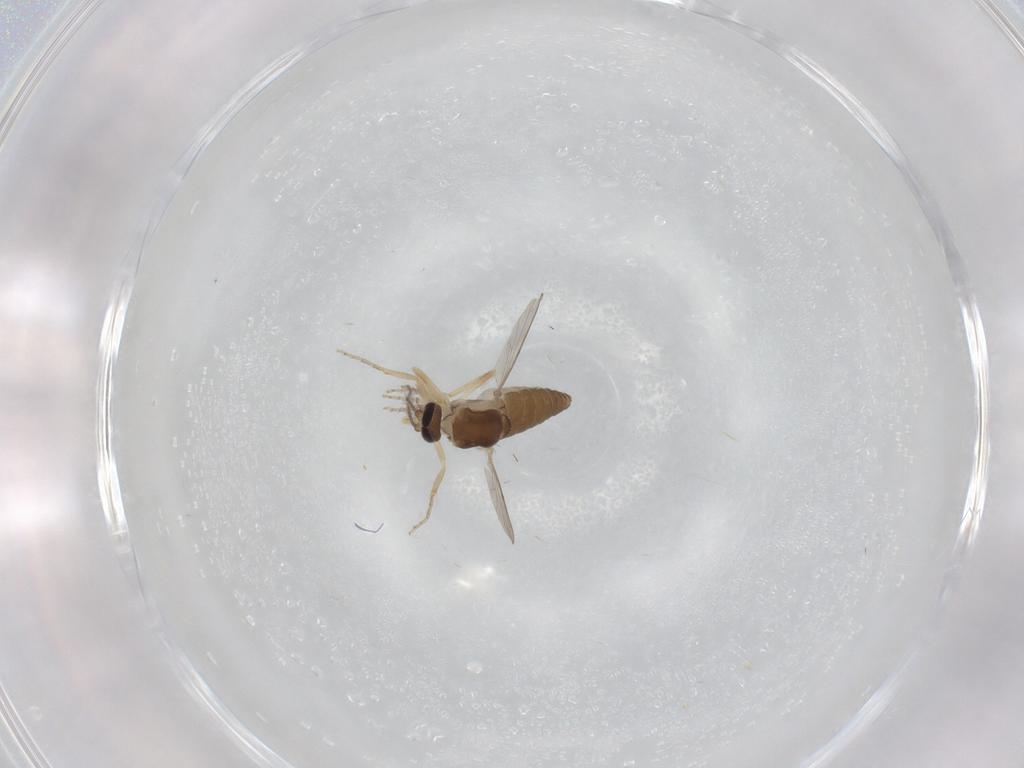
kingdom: Animalia
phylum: Arthropoda
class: Insecta
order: Diptera
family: Ceratopogonidae
